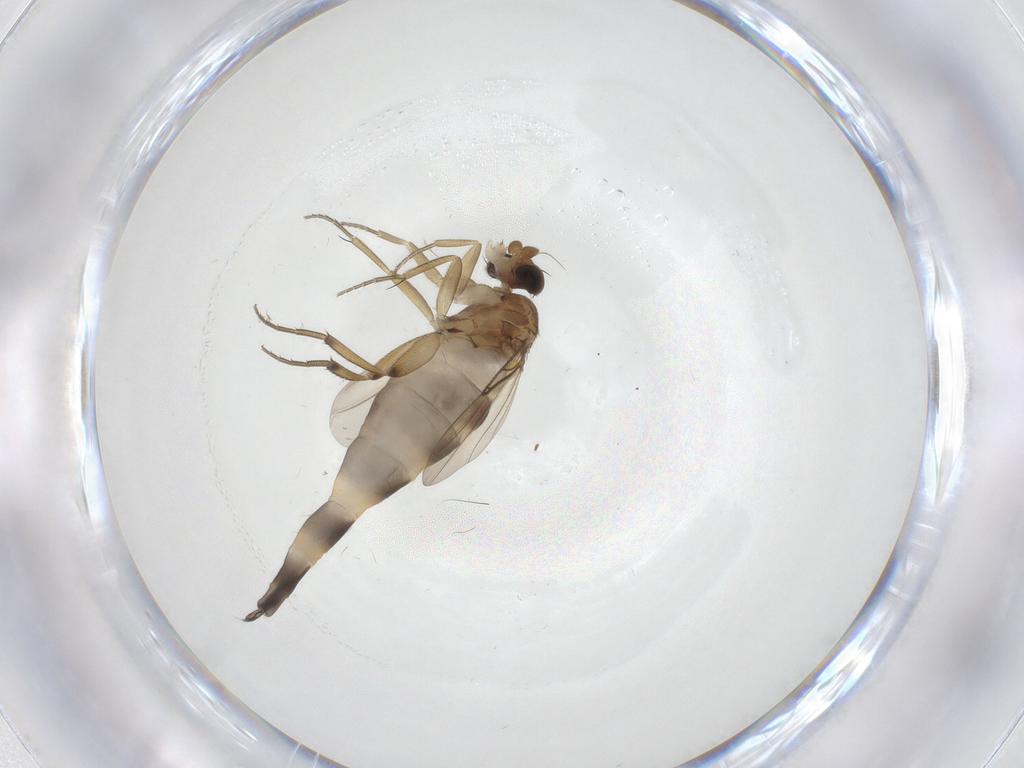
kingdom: Animalia
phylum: Arthropoda
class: Insecta
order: Diptera
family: Phoridae
